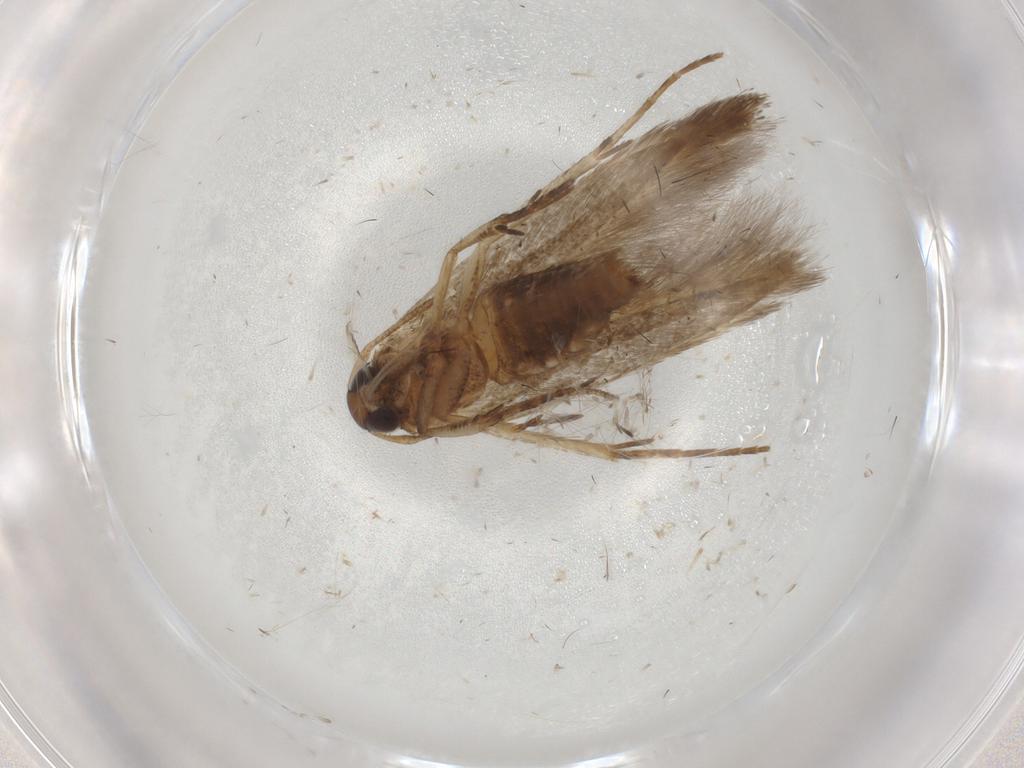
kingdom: Animalia
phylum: Arthropoda
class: Insecta
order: Lepidoptera
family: Cosmopterigidae
